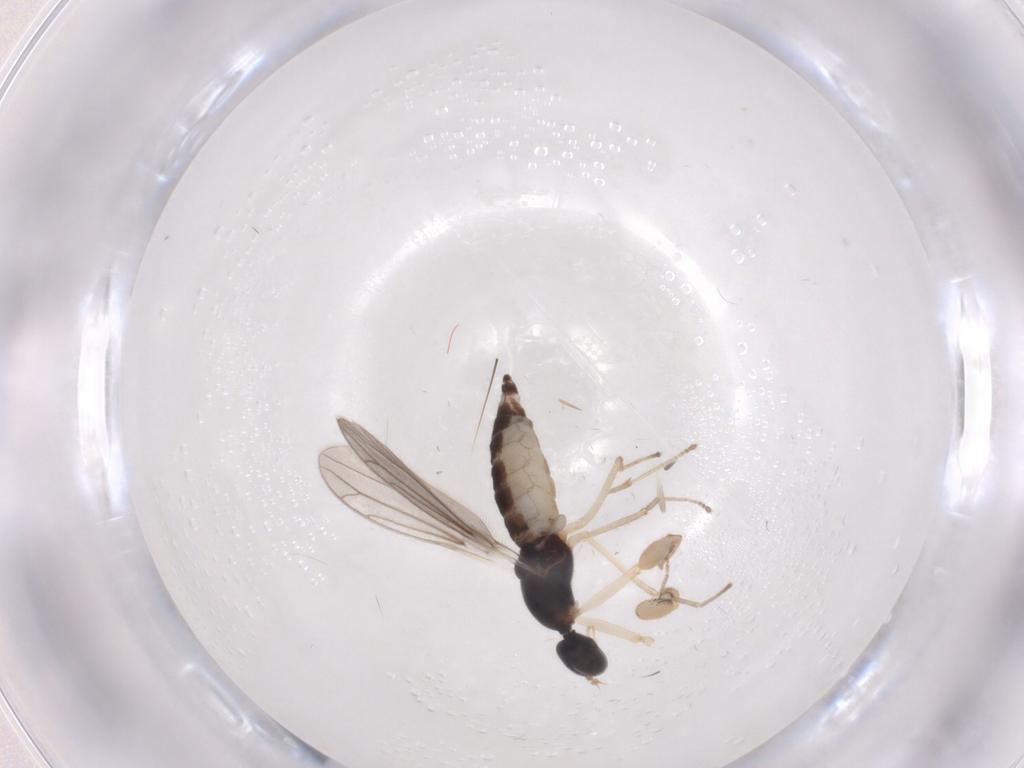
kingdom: Animalia
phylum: Arthropoda
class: Insecta
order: Diptera
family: Empididae
